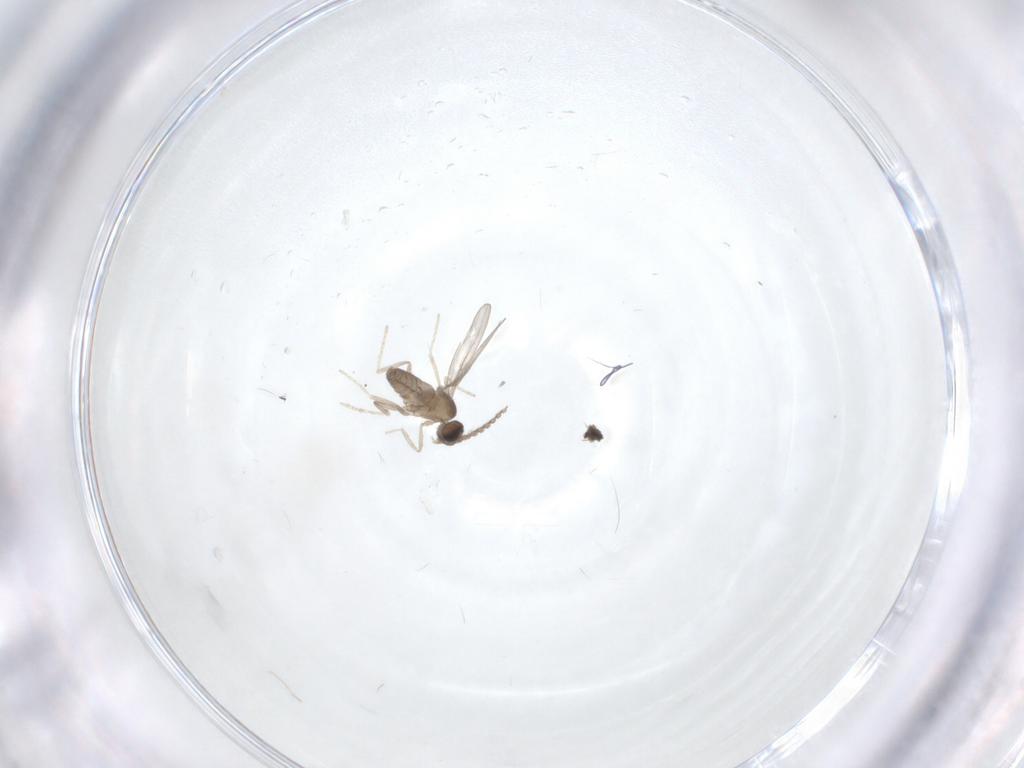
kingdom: Animalia
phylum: Arthropoda
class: Insecta
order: Diptera
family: Cecidomyiidae
